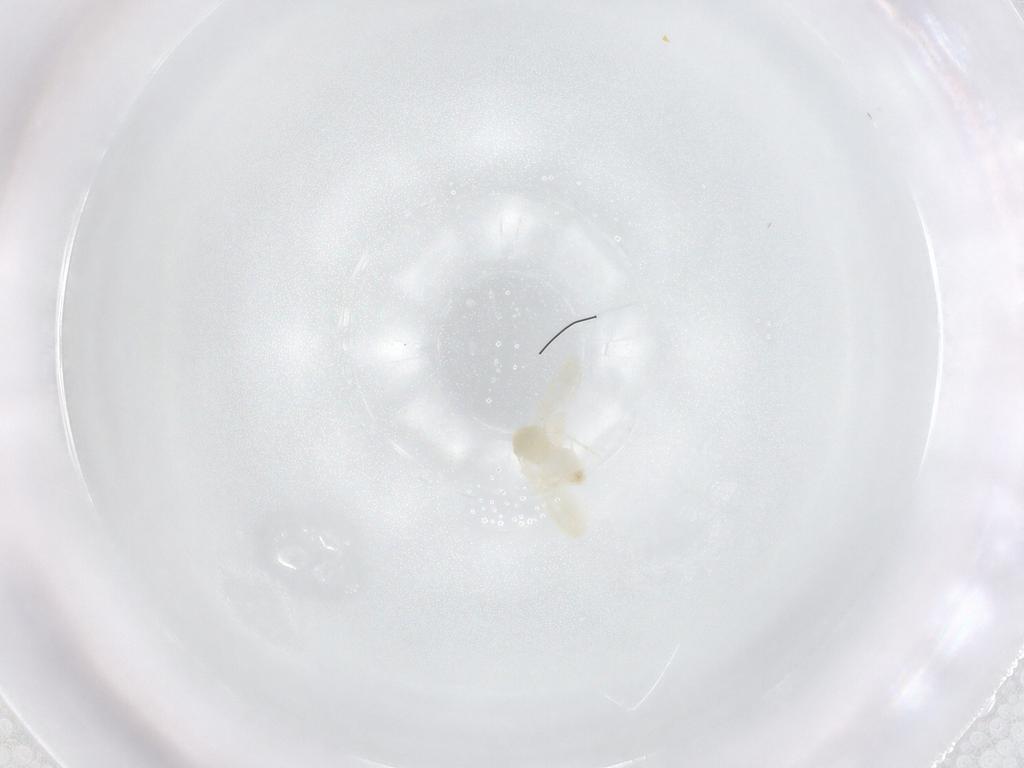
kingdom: Animalia
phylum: Arthropoda
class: Insecta
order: Hemiptera
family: Aleyrodidae
